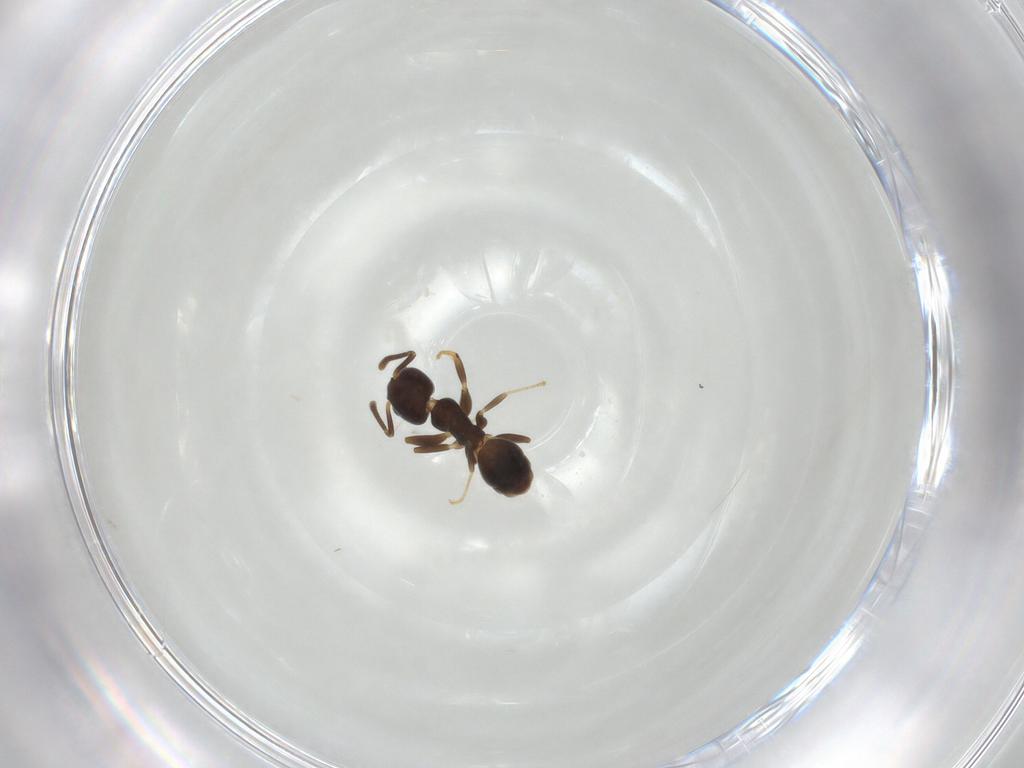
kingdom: Animalia
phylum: Arthropoda
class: Insecta
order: Hymenoptera
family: Formicidae
